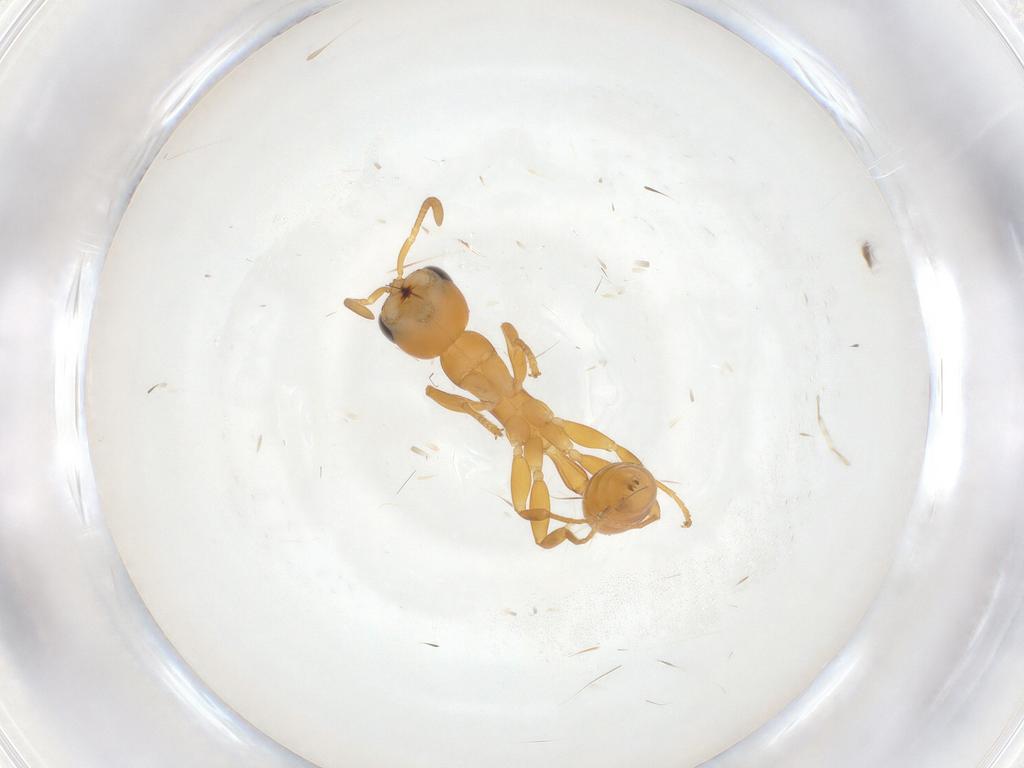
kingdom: Animalia
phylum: Arthropoda
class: Insecta
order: Hymenoptera
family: Formicidae
